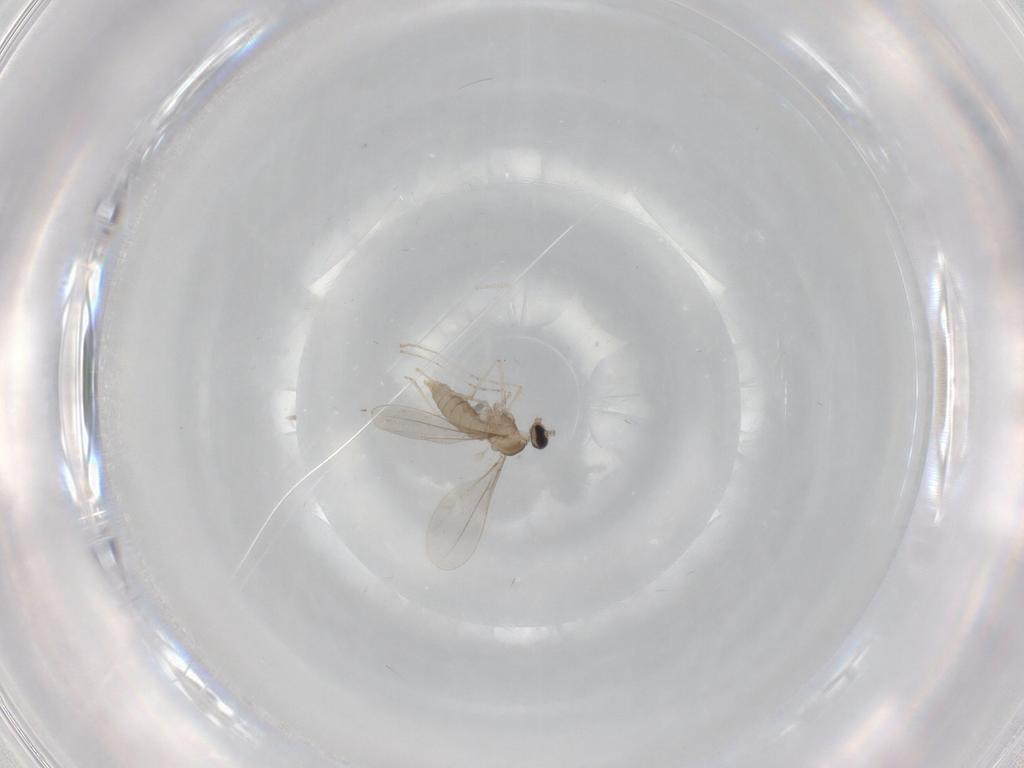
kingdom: Animalia
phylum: Arthropoda
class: Insecta
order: Diptera
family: Cecidomyiidae
